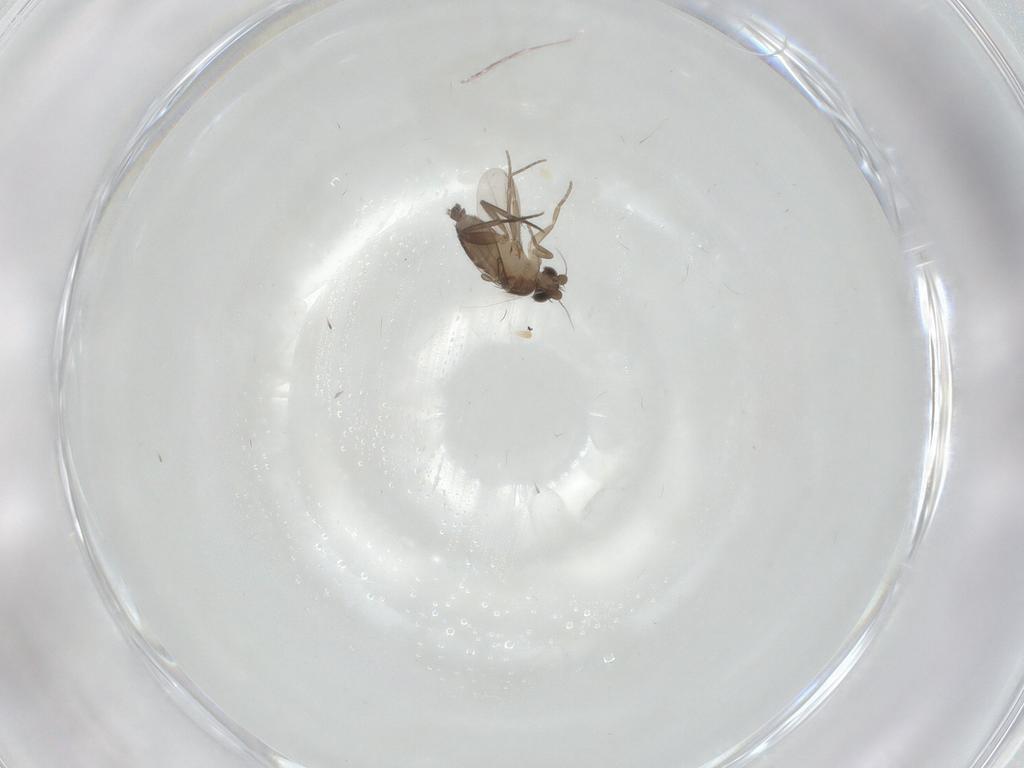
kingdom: Animalia
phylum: Arthropoda
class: Insecta
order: Diptera
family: Phoridae
